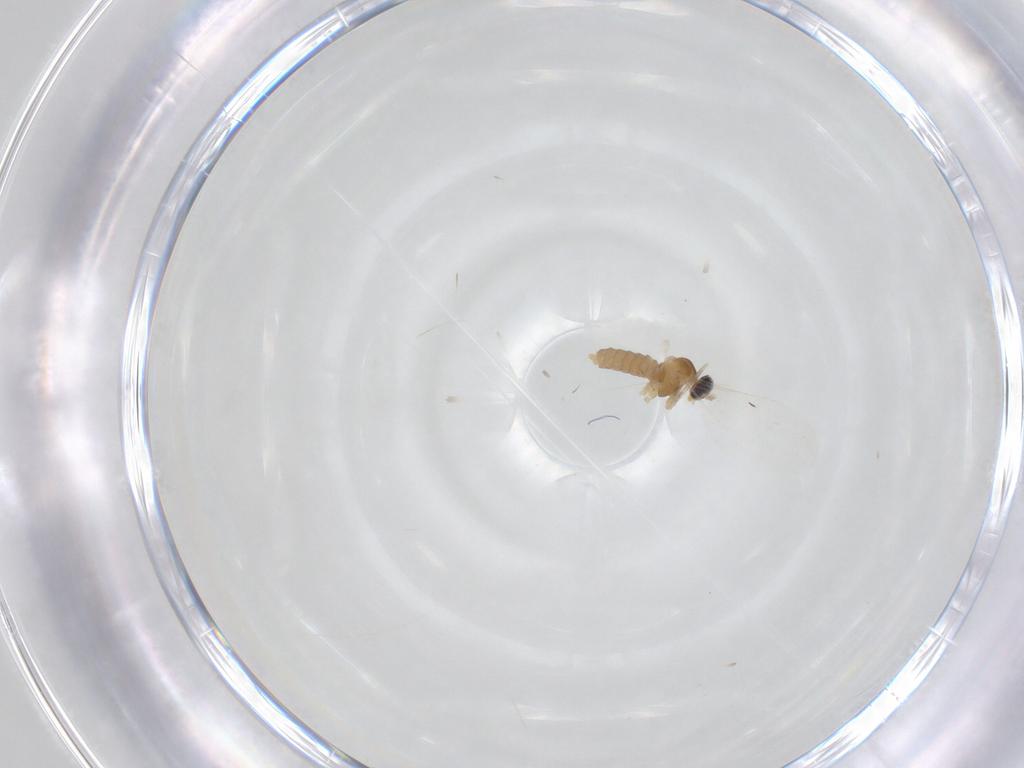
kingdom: Animalia
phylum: Arthropoda
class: Insecta
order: Diptera
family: Cecidomyiidae
